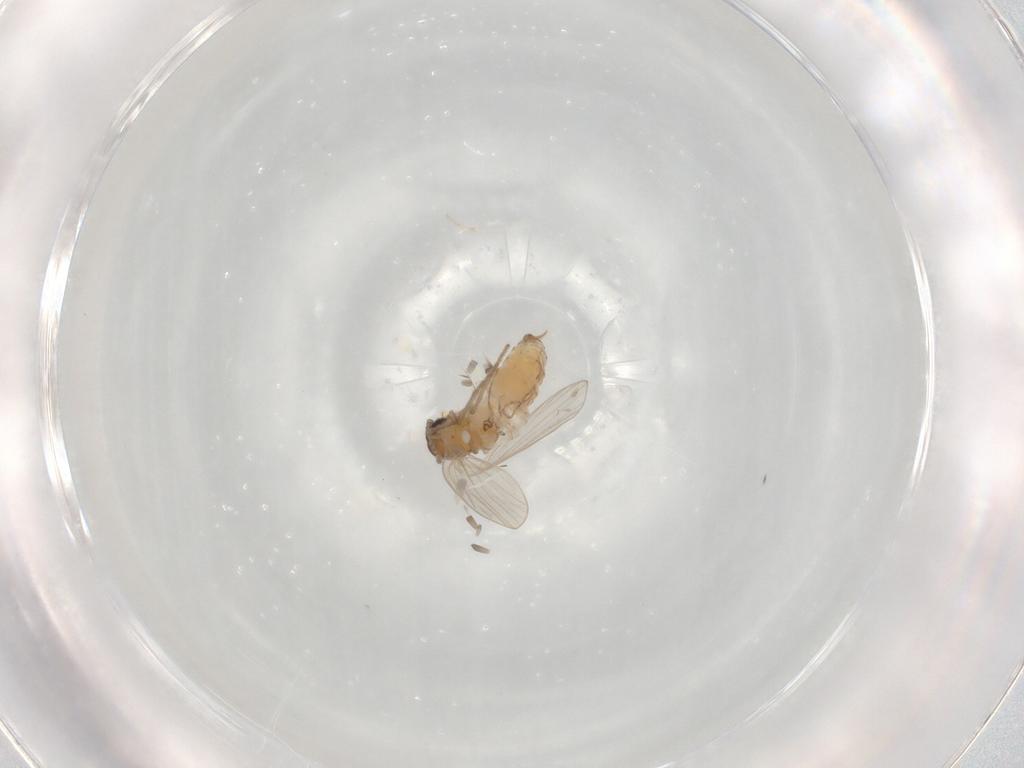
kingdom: Animalia
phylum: Arthropoda
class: Insecta
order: Diptera
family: Psychodidae
